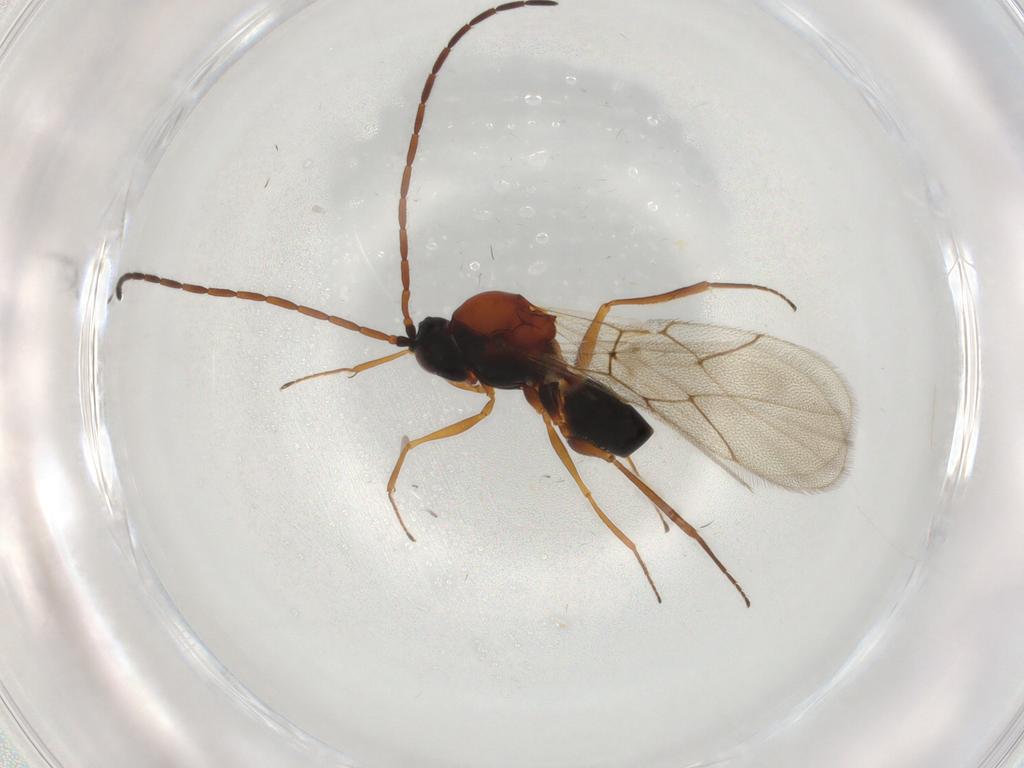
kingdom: Animalia
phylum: Arthropoda
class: Insecta
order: Hymenoptera
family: Figitidae
